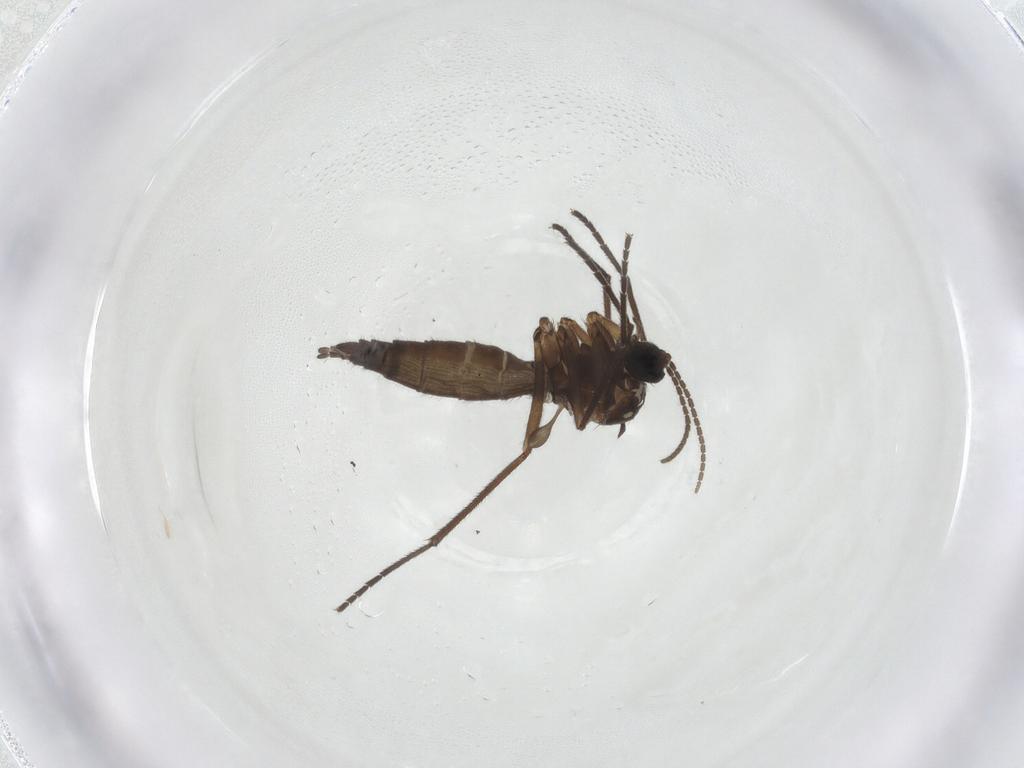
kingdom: Animalia
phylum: Arthropoda
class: Insecta
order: Diptera
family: Sciaridae
